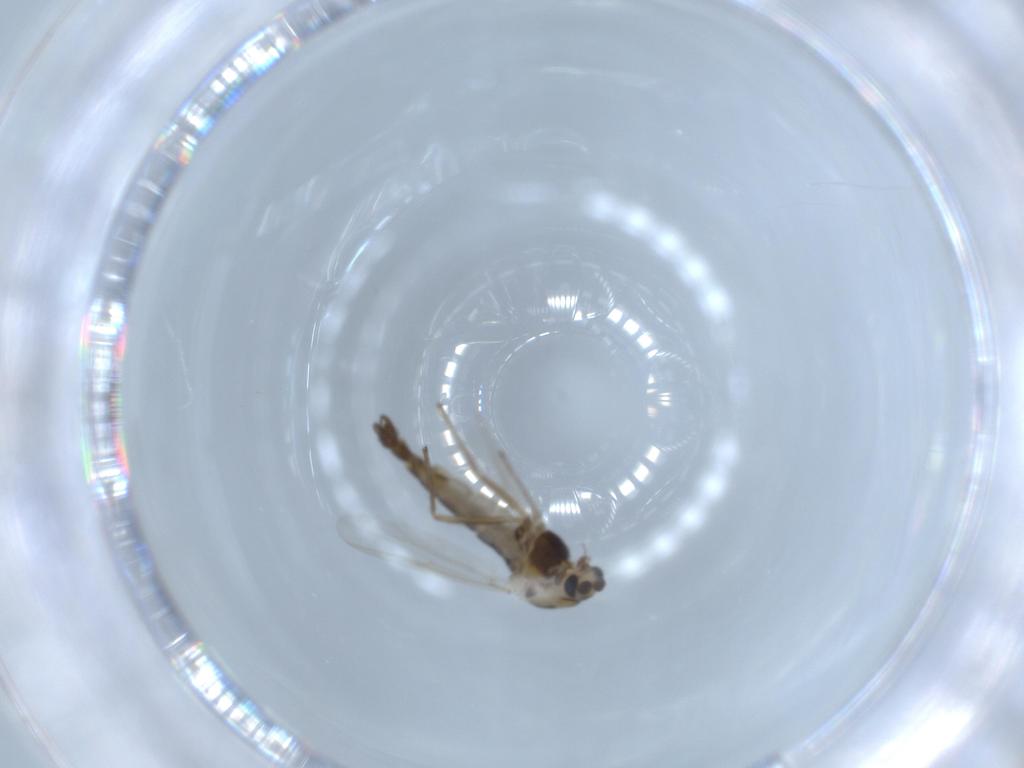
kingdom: Animalia
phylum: Arthropoda
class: Insecta
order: Diptera
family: Chironomidae
